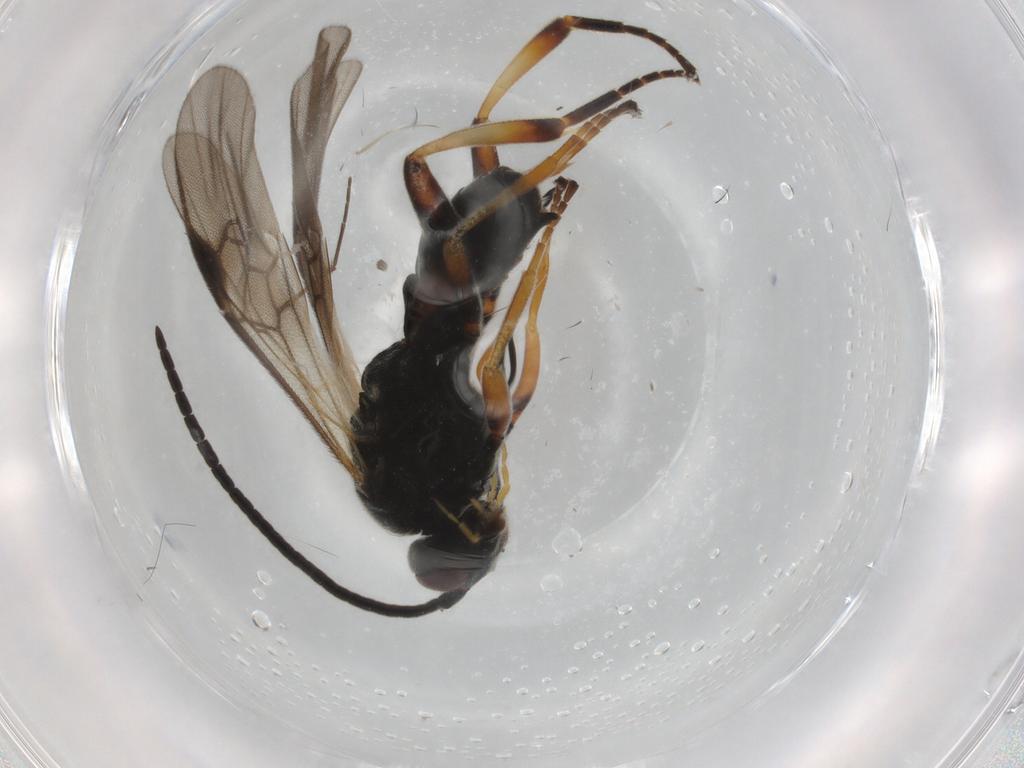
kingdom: Animalia
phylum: Arthropoda
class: Insecta
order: Hymenoptera
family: Braconidae
